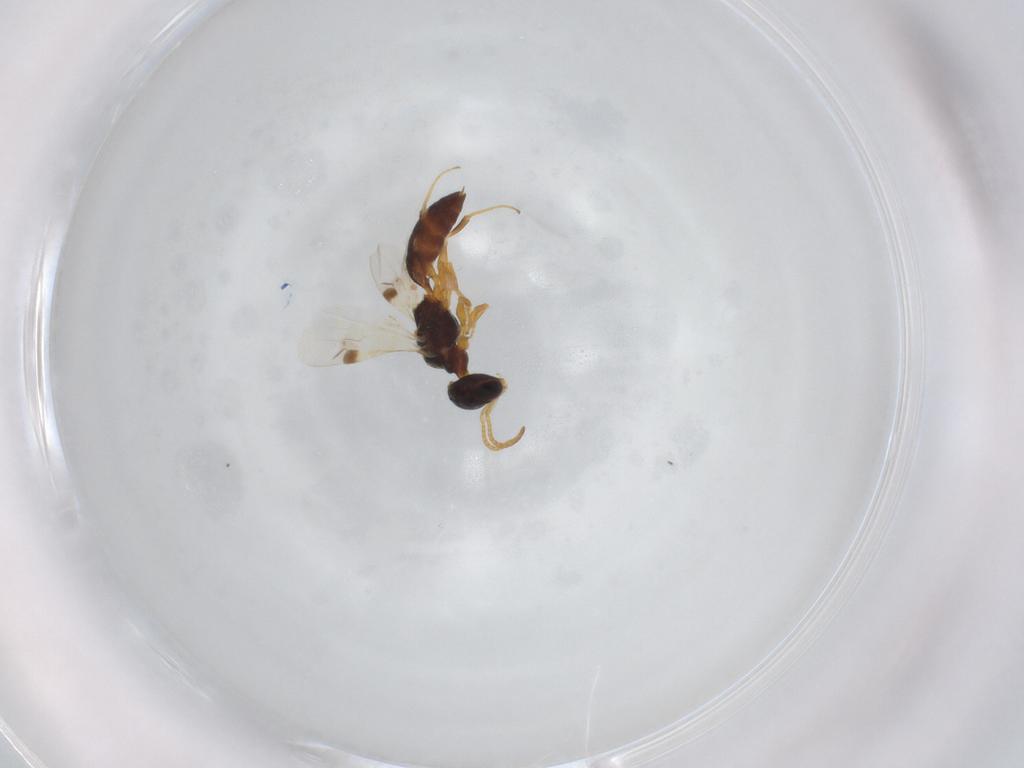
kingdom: Animalia
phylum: Arthropoda
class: Insecta
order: Hymenoptera
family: Pemphredonidae
